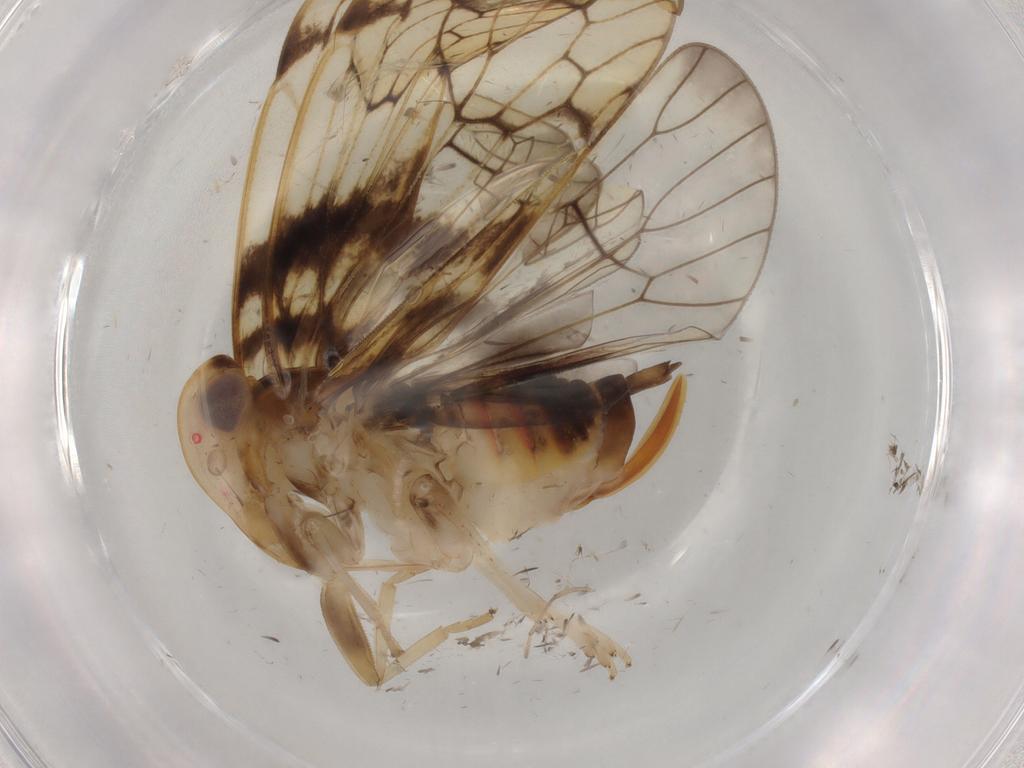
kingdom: Animalia
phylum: Arthropoda
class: Insecta
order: Hemiptera
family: Cixiidae
